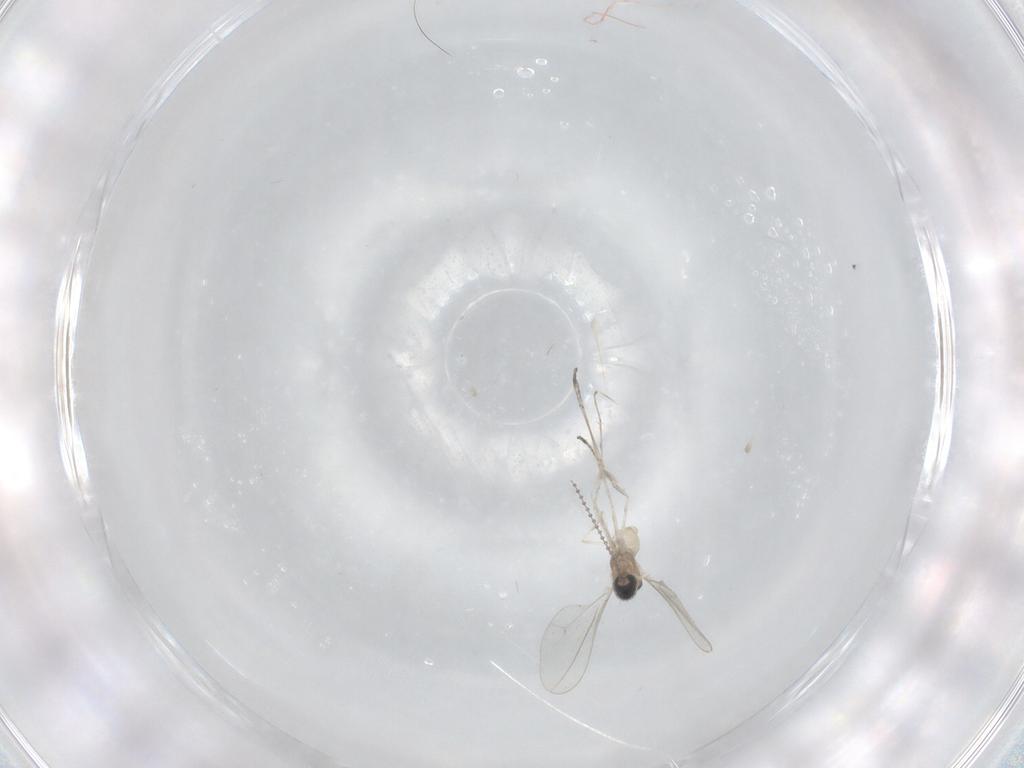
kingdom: Animalia
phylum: Arthropoda
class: Insecta
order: Diptera
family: Cecidomyiidae
